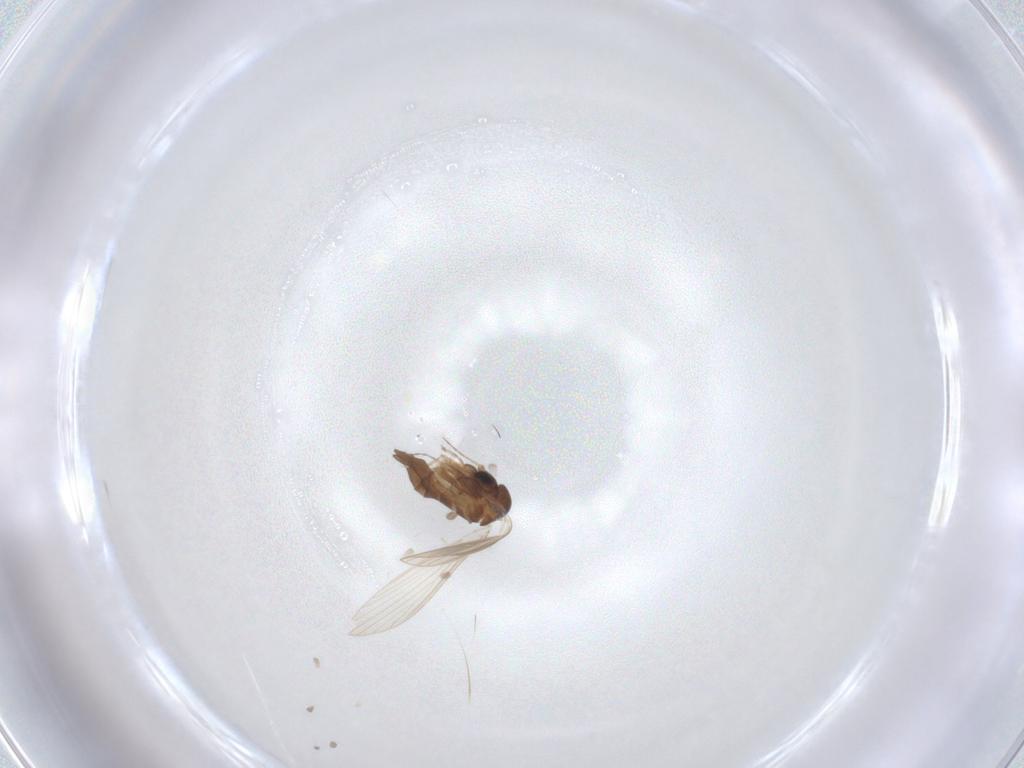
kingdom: Animalia
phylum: Arthropoda
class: Insecta
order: Diptera
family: Psychodidae
